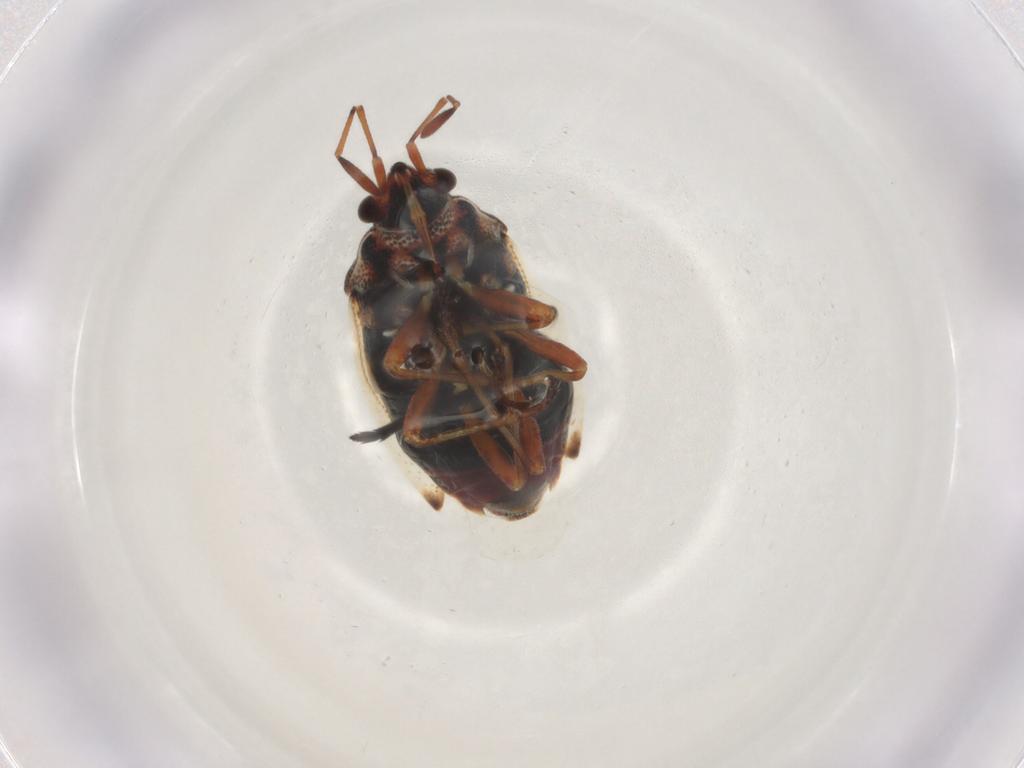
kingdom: Animalia
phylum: Arthropoda
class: Insecta
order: Hemiptera
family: Lygaeidae
